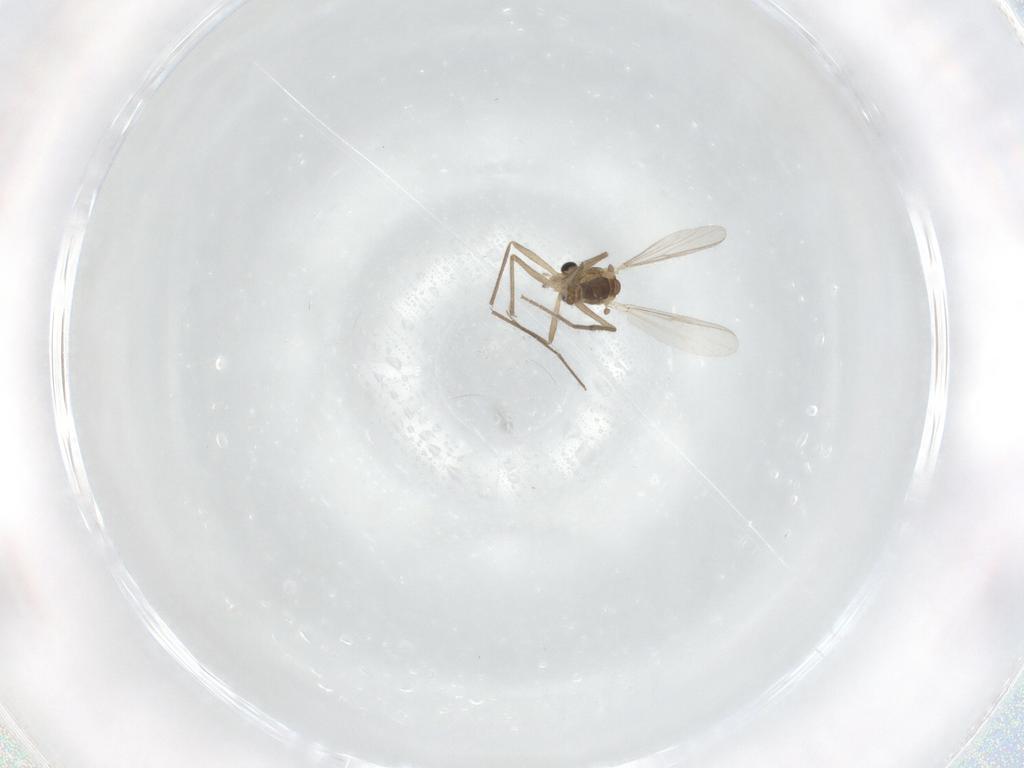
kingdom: Animalia
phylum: Arthropoda
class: Insecta
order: Diptera
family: Chironomidae
